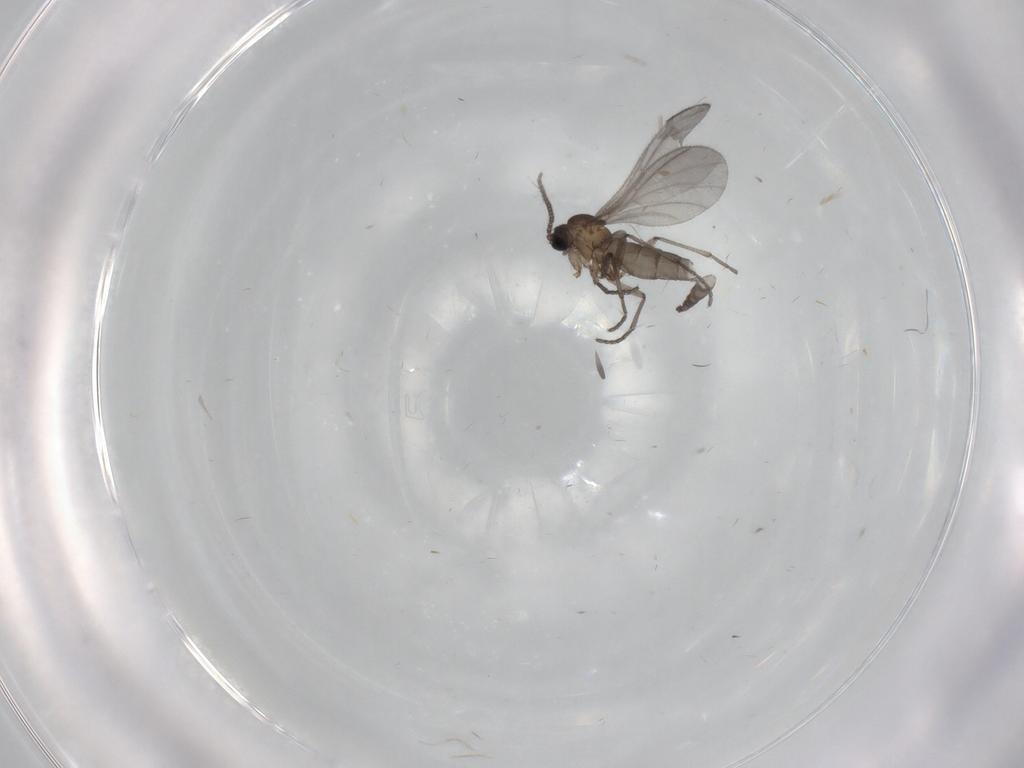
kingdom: Animalia
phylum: Arthropoda
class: Insecta
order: Diptera
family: Sciaridae
